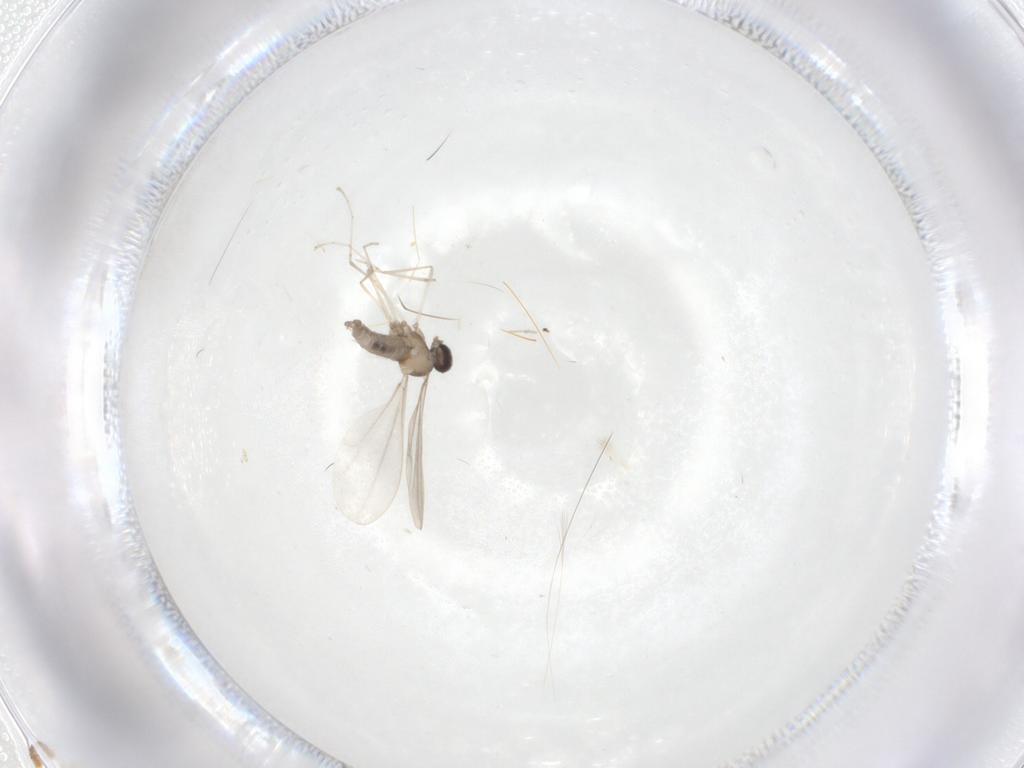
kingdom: Animalia
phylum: Arthropoda
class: Insecta
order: Diptera
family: Cecidomyiidae
